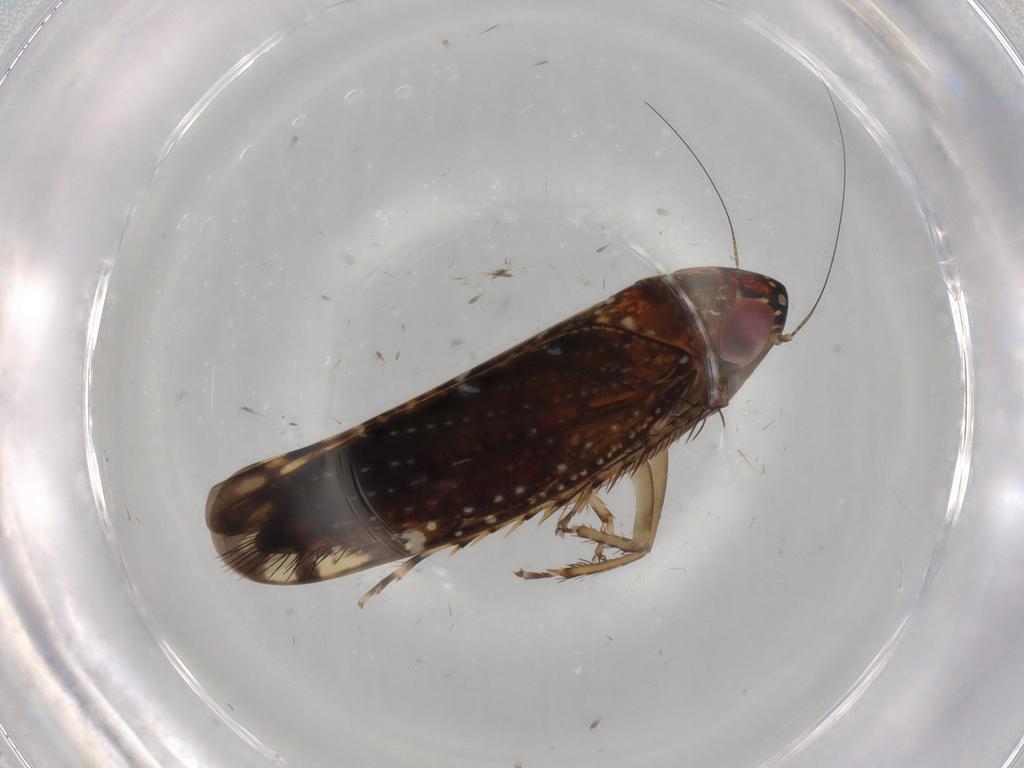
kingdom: Animalia
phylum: Arthropoda
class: Insecta
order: Hemiptera
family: Cicadellidae
